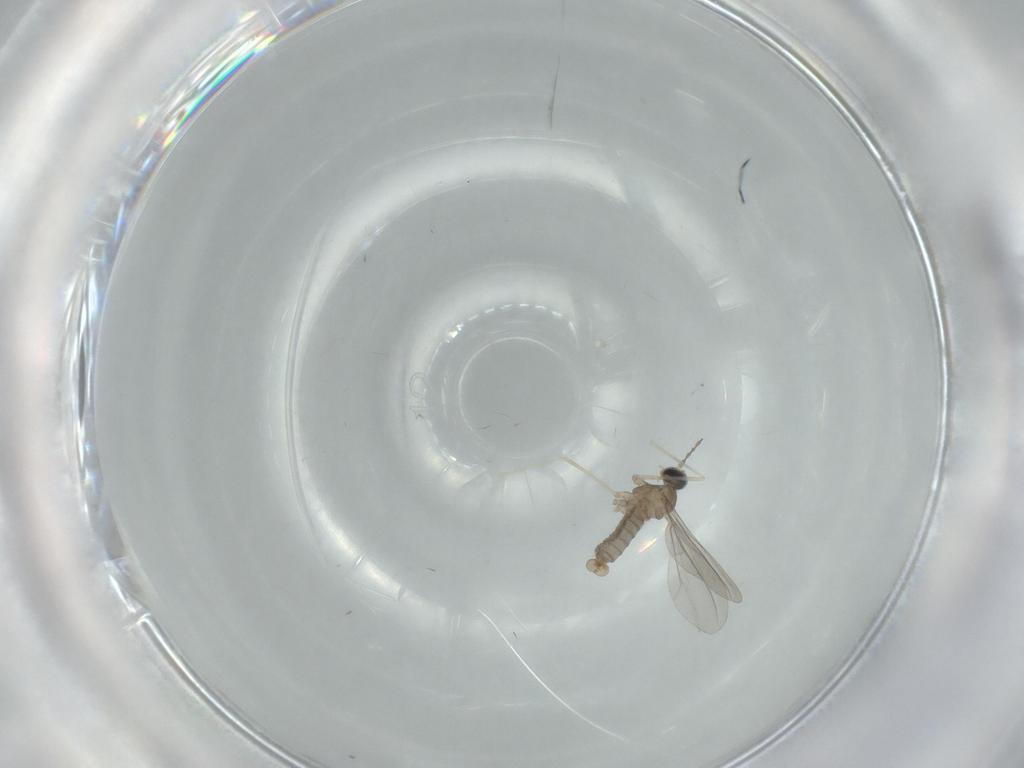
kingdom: Animalia
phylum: Arthropoda
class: Insecta
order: Diptera
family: Cecidomyiidae
